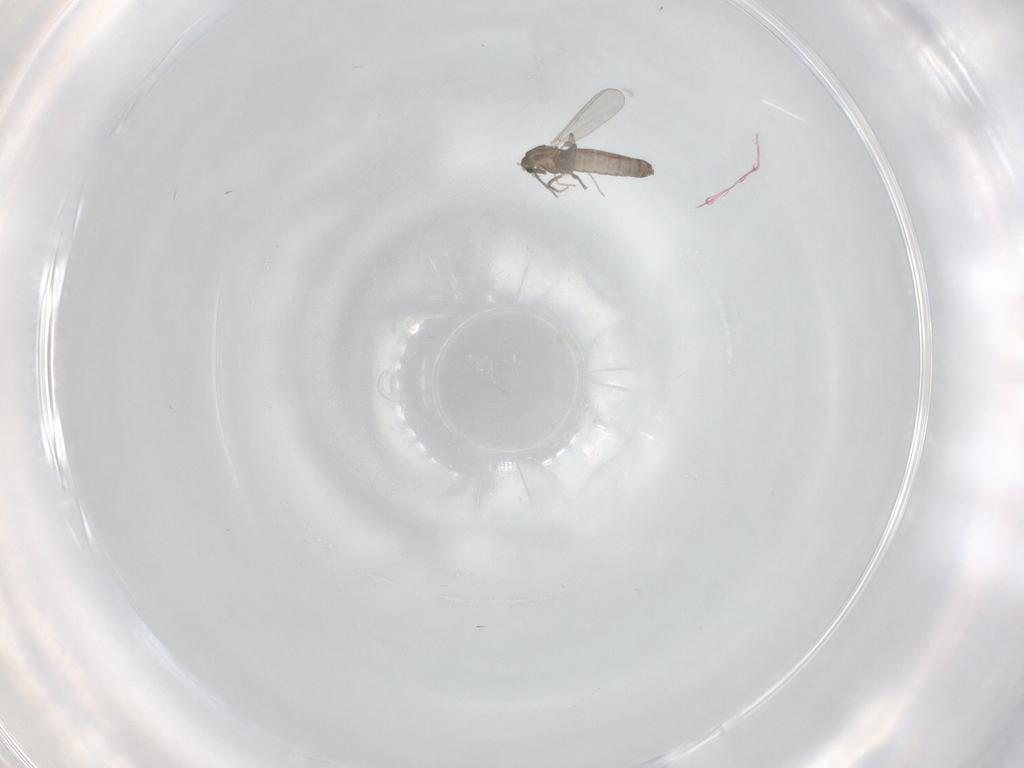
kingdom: Animalia
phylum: Arthropoda
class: Insecta
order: Diptera
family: Chironomidae
